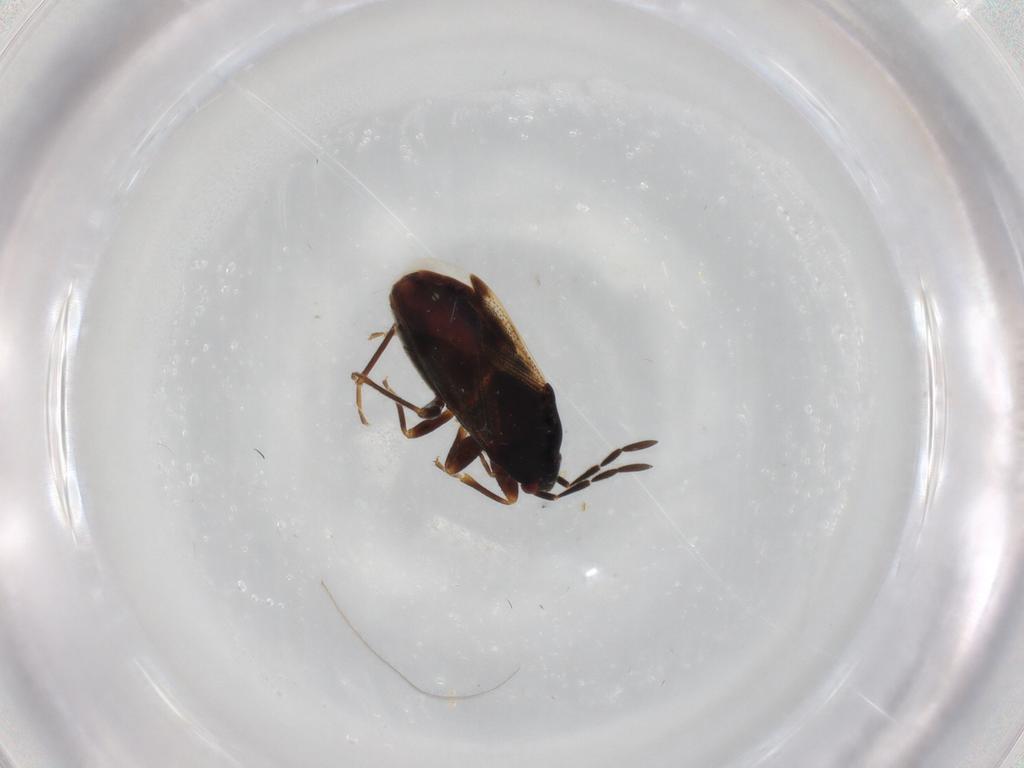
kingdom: Animalia
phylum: Arthropoda
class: Insecta
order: Hemiptera
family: Rhyparochromidae
